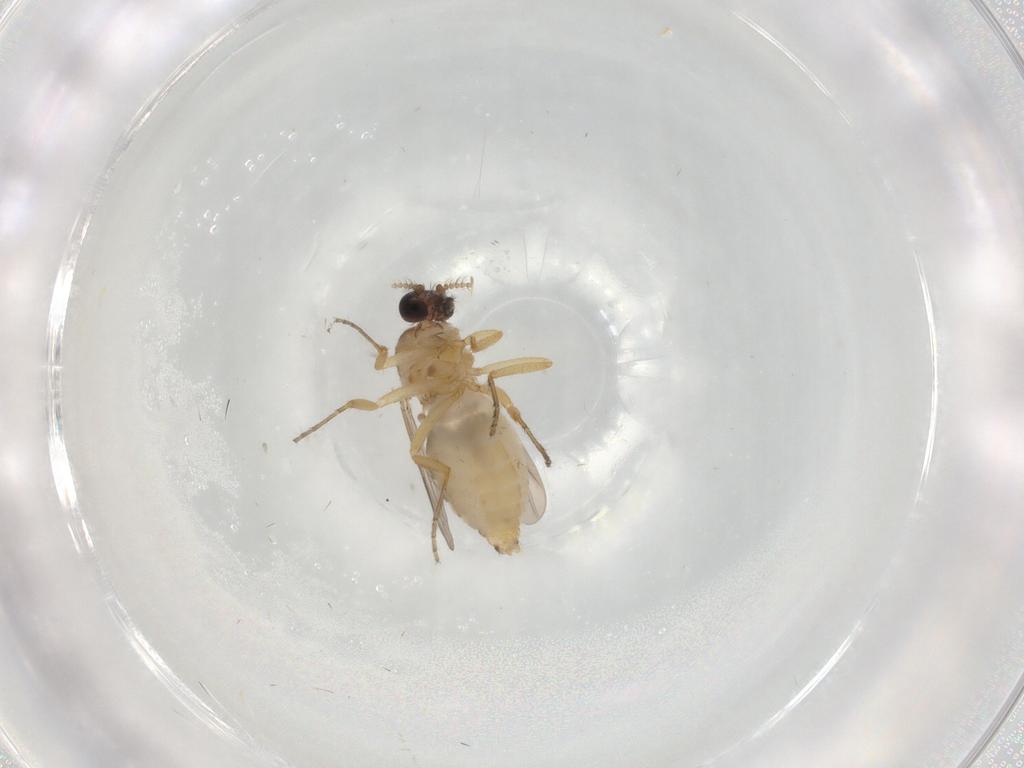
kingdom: Animalia
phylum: Arthropoda
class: Insecta
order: Diptera
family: Ceratopogonidae
